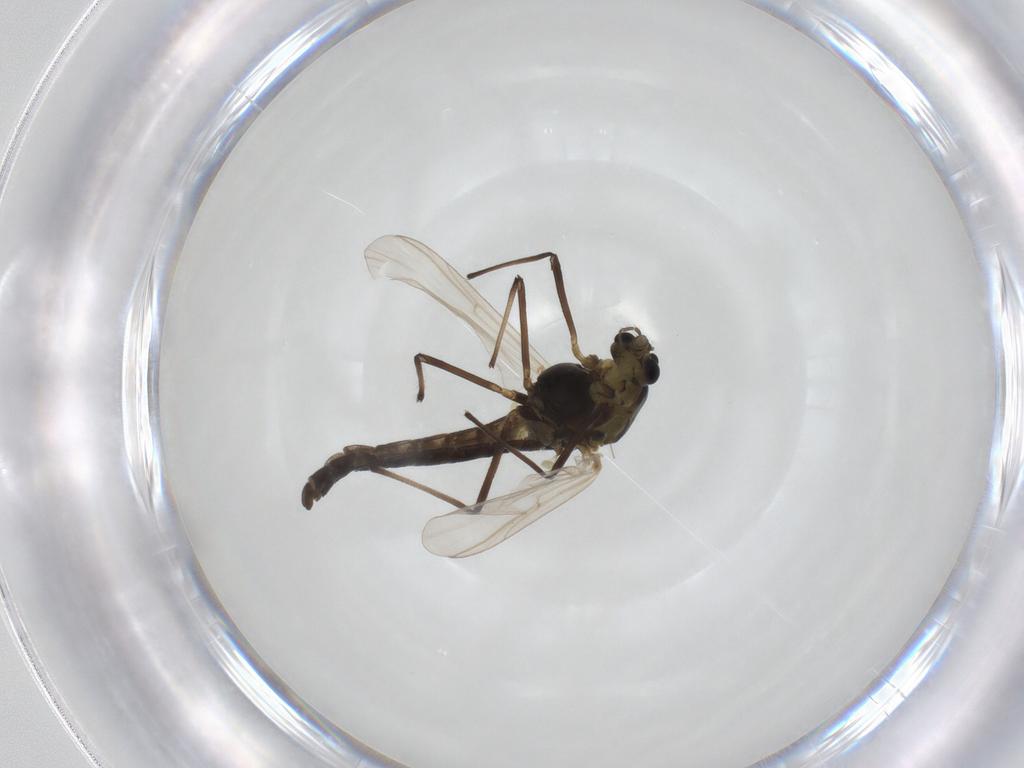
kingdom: Animalia
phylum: Arthropoda
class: Insecta
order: Diptera
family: Chironomidae
